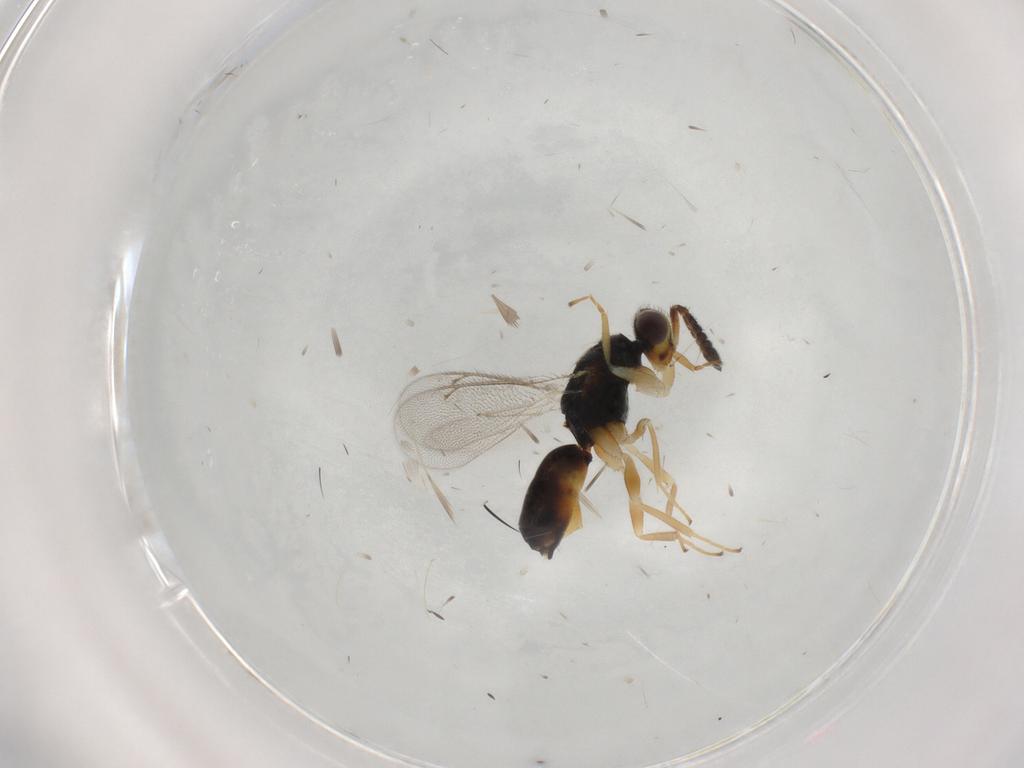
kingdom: Animalia
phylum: Arthropoda
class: Insecta
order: Hymenoptera
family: Eulophidae
